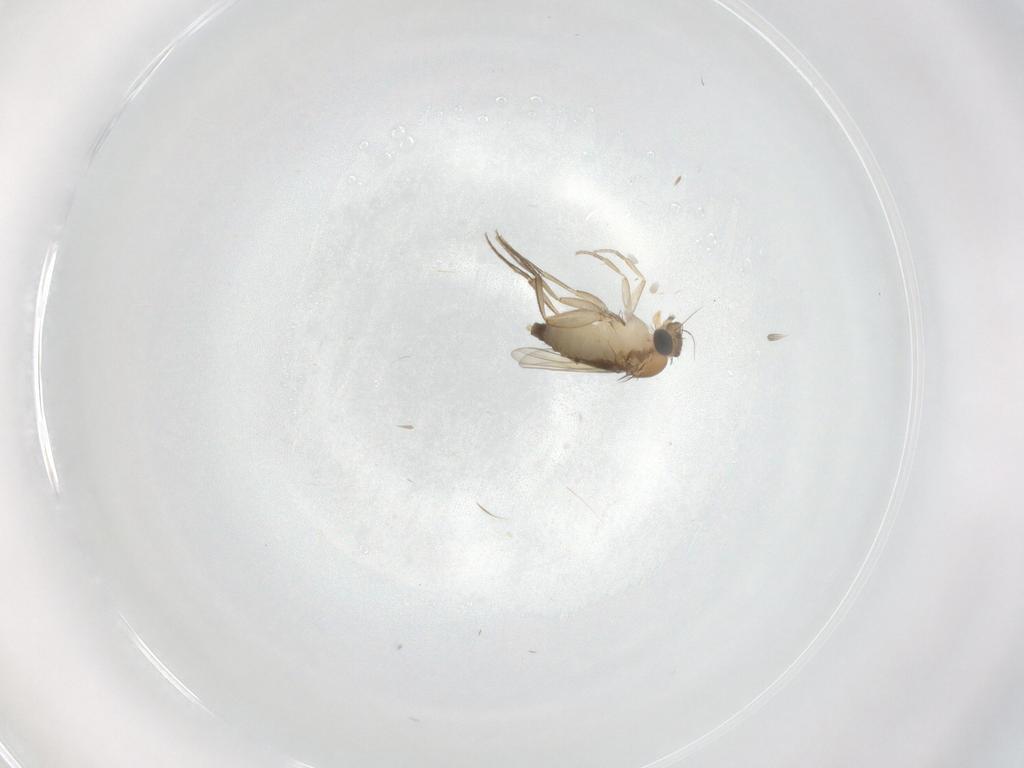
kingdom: Animalia
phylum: Arthropoda
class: Insecta
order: Diptera
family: Phoridae
